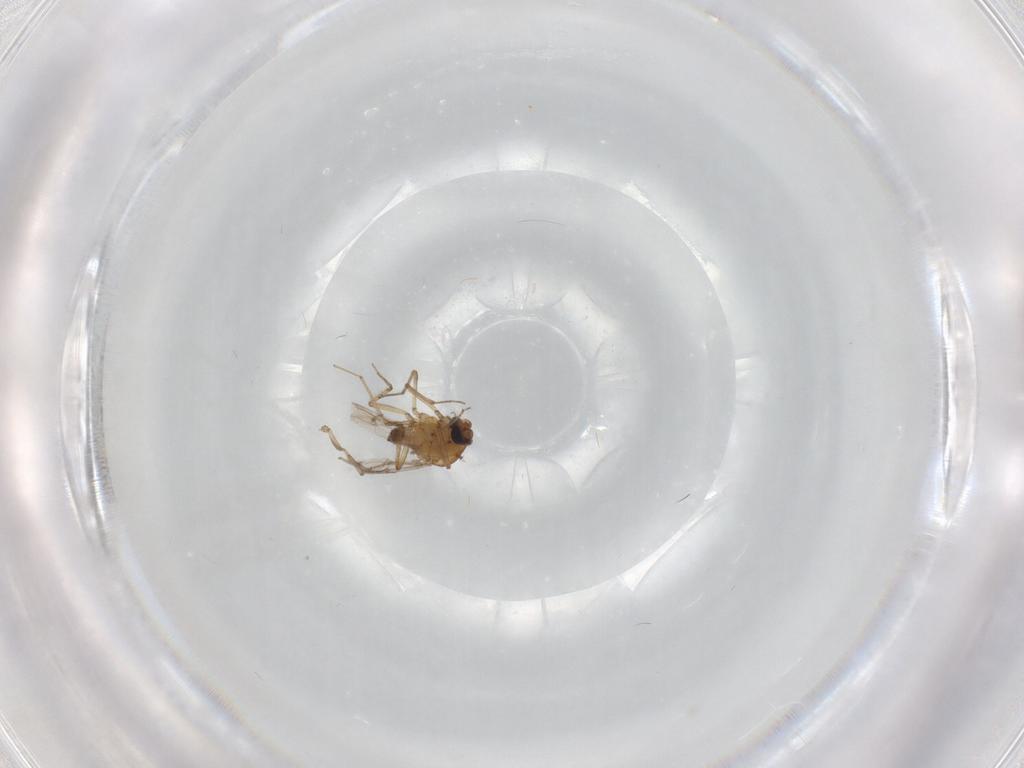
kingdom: Animalia
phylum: Arthropoda
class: Insecta
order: Diptera
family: Ceratopogonidae
